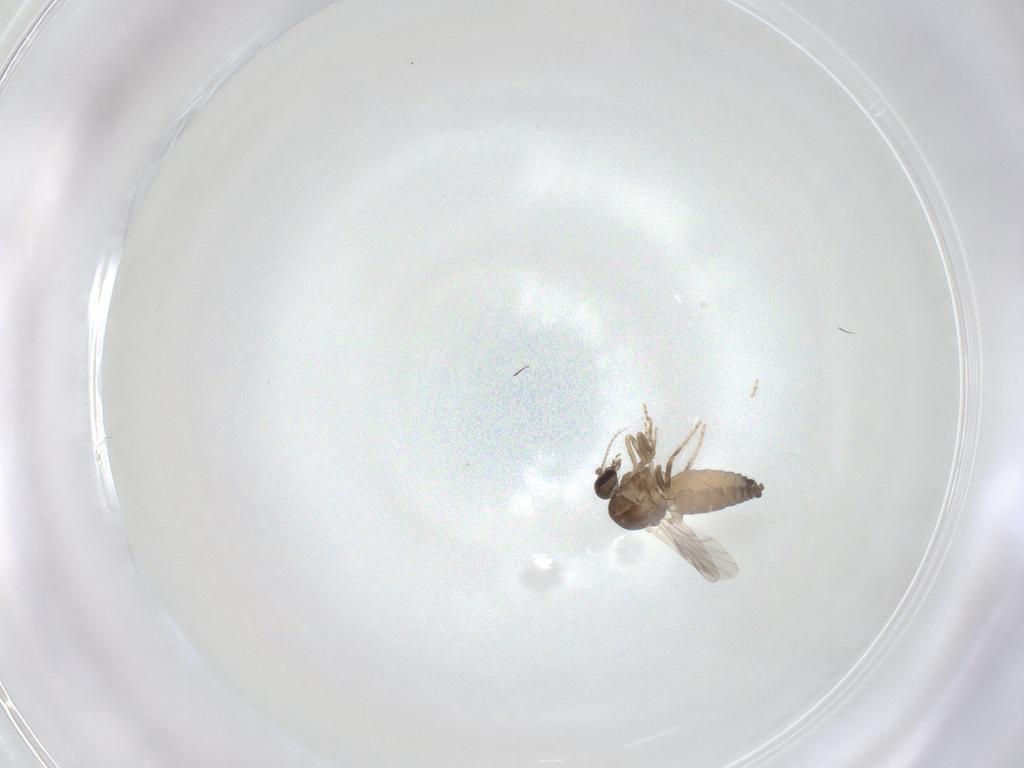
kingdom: Animalia
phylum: Arthropoda
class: Insecta
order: Diptera
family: Ceratopogonidae
